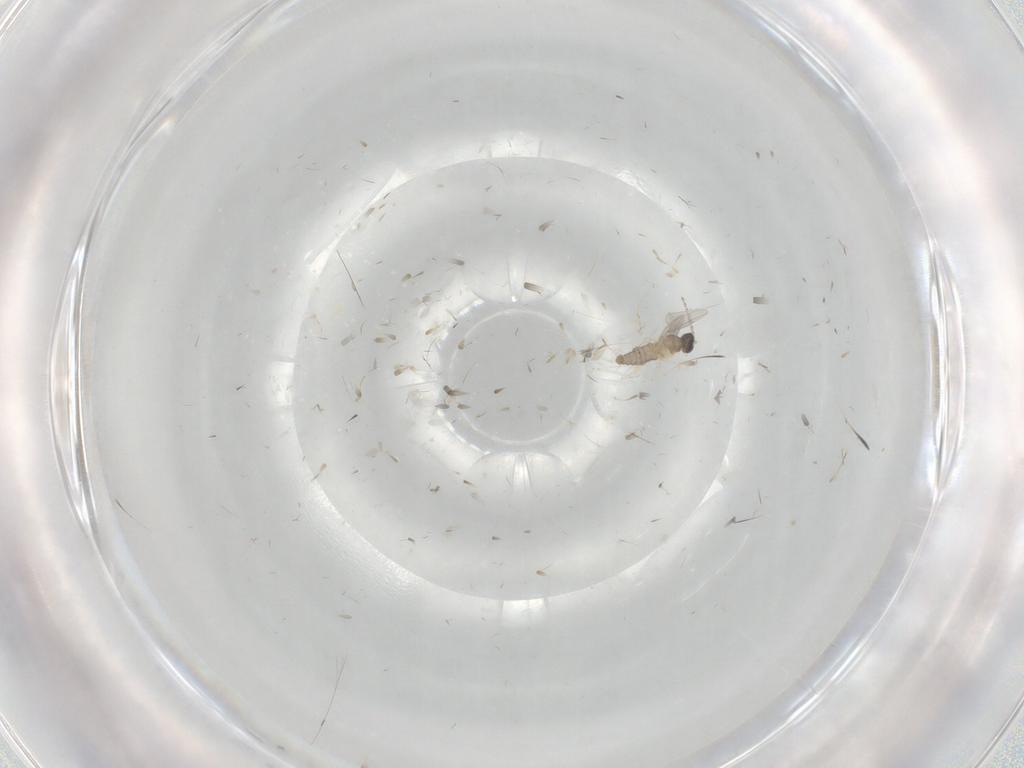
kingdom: Animalia
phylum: Arthropoda
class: Insecta
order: Diptera
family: Cecidomyiidae
